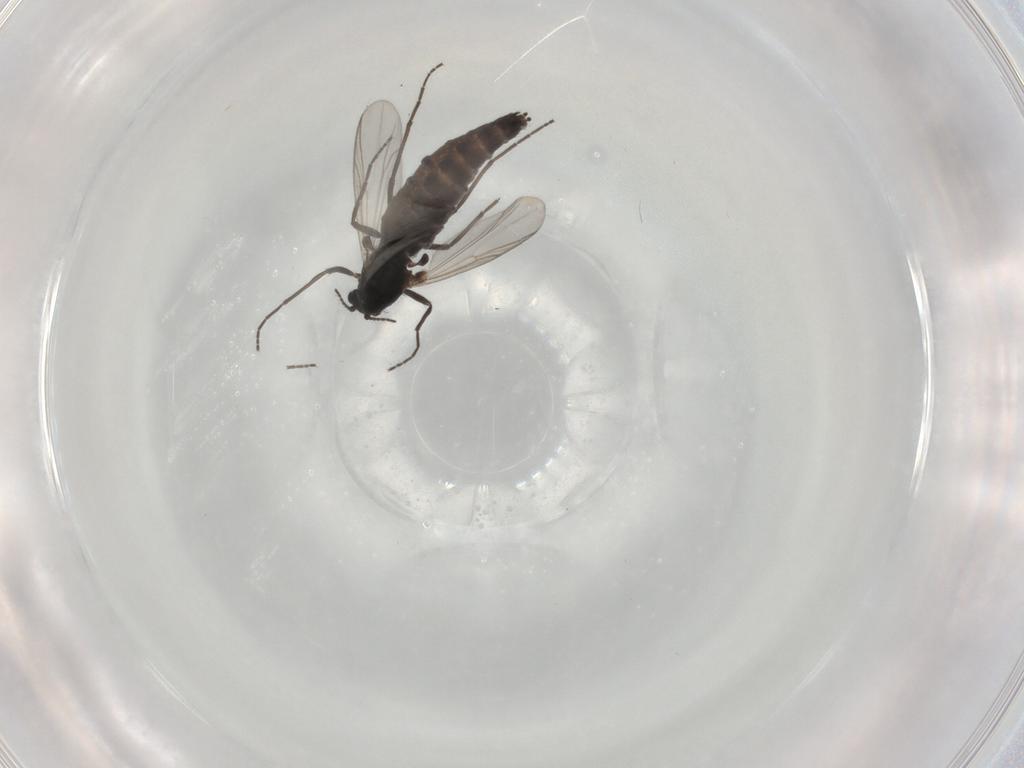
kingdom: Animalia
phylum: Arthropoda
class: Insecta
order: Diptera
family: Chironomidae
